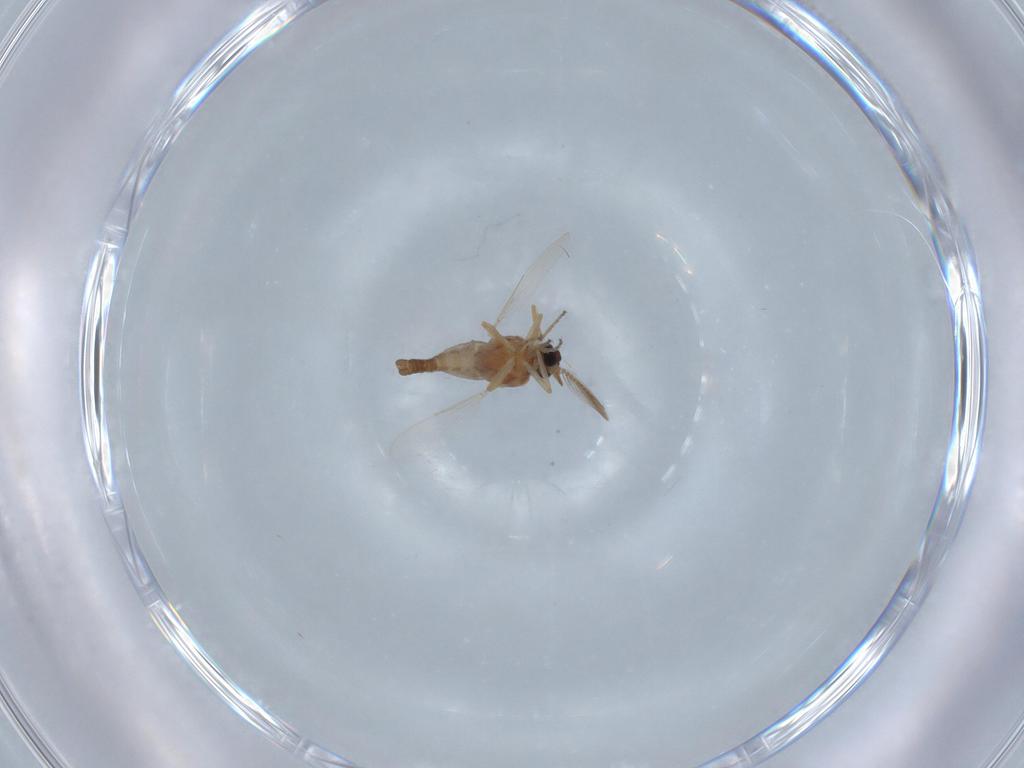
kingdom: Animalia
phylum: Arthropoda
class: Insecta
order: Diptera
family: Ceratopogonidae
